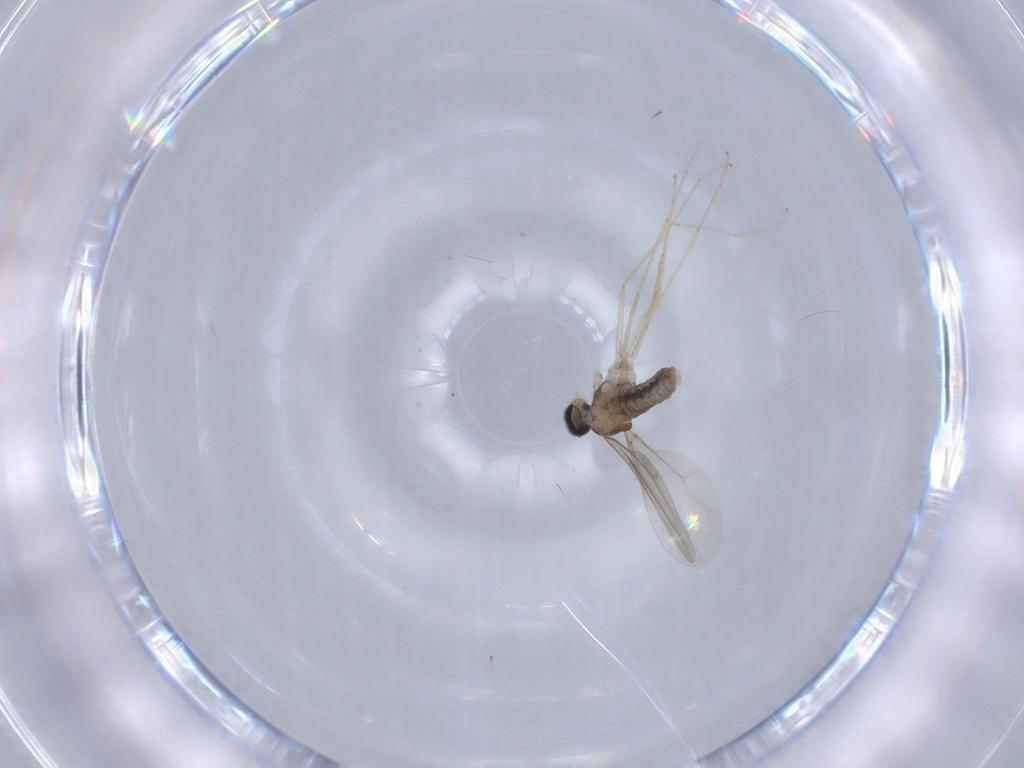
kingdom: Animalia
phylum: Arthropoda
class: Insecta
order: Diptera
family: Cecidomyiidae
